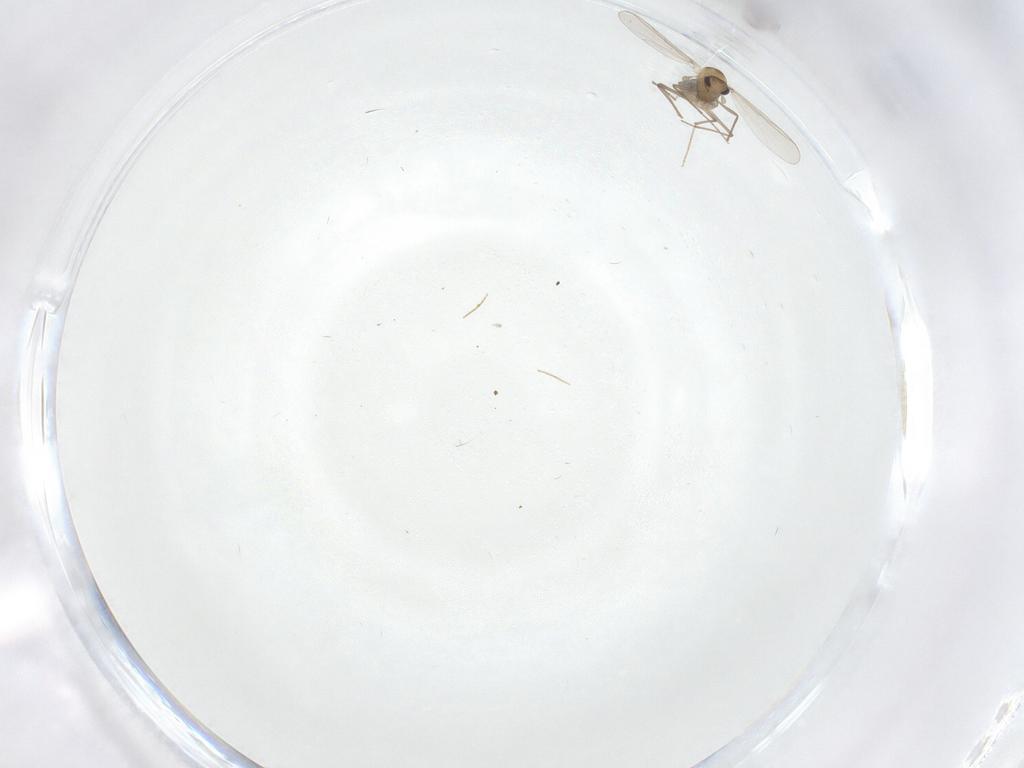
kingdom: Animalia
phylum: Arthropoda
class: Insecta
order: Diptera
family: Chironomidae
